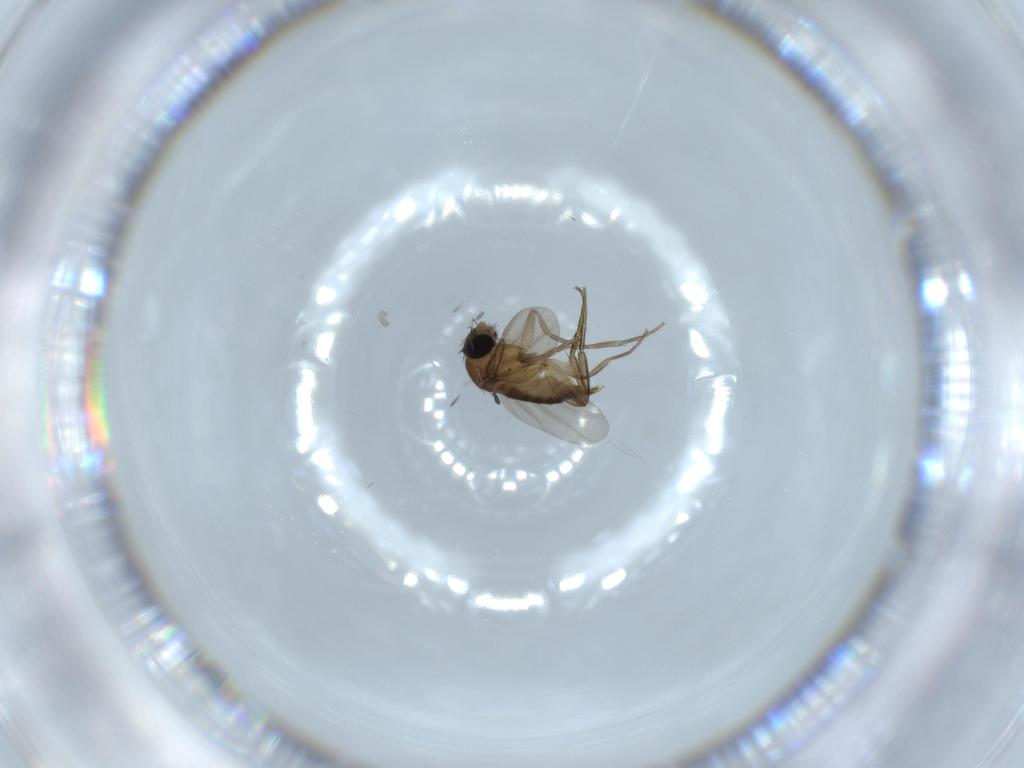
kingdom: Animalia
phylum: Arthropoda
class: Insecta
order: Diptera
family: Phoridae
